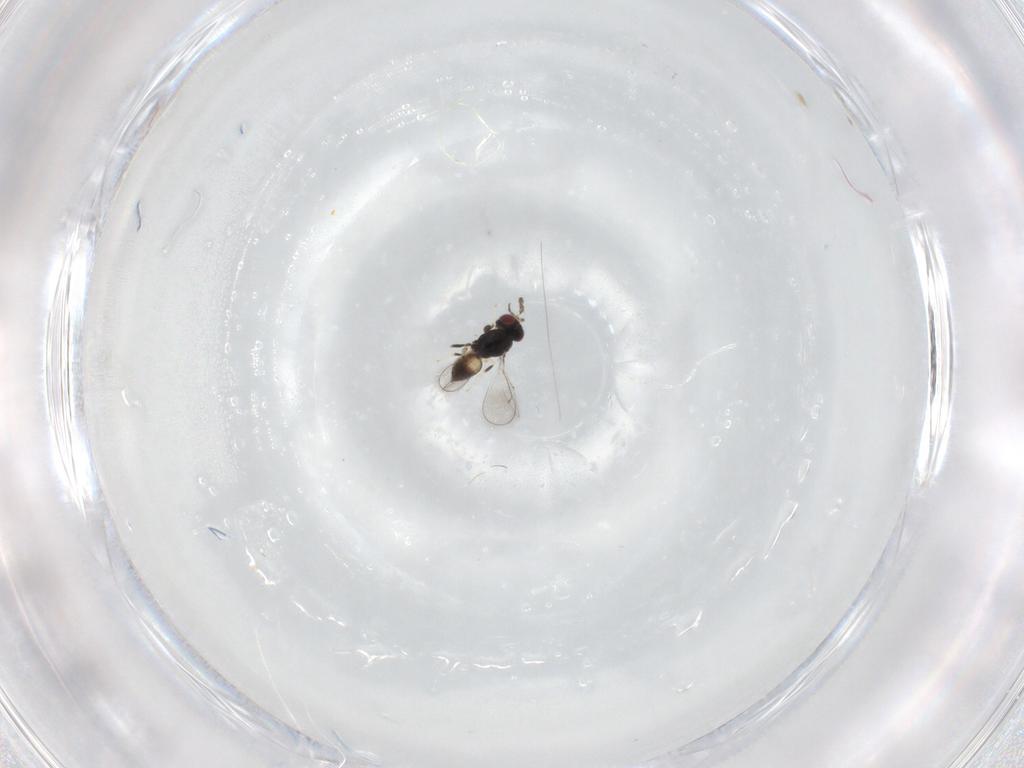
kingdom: Animalia
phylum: Arthropoda
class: Insecta
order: Hymenoptera
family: Eulophidae
